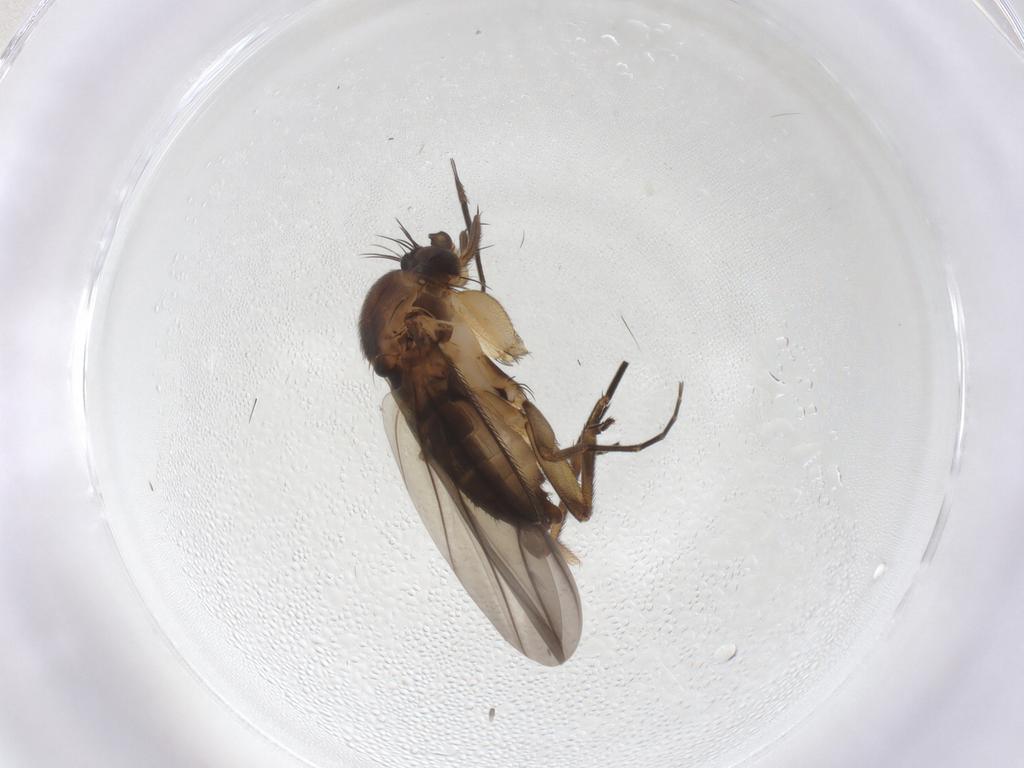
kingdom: Animalia
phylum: Arthropoda
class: Insecta
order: Diptera
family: Phoridae
